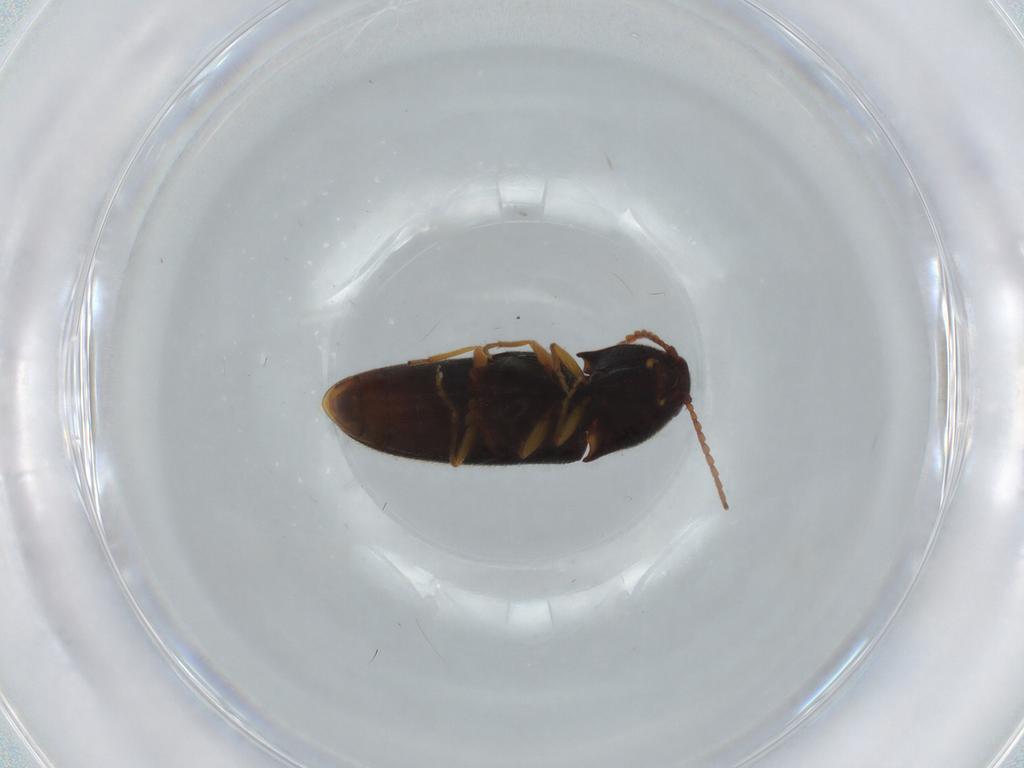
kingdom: Animalia
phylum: Arthropoda
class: Insecta
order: Coleoptera
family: Elateridae
